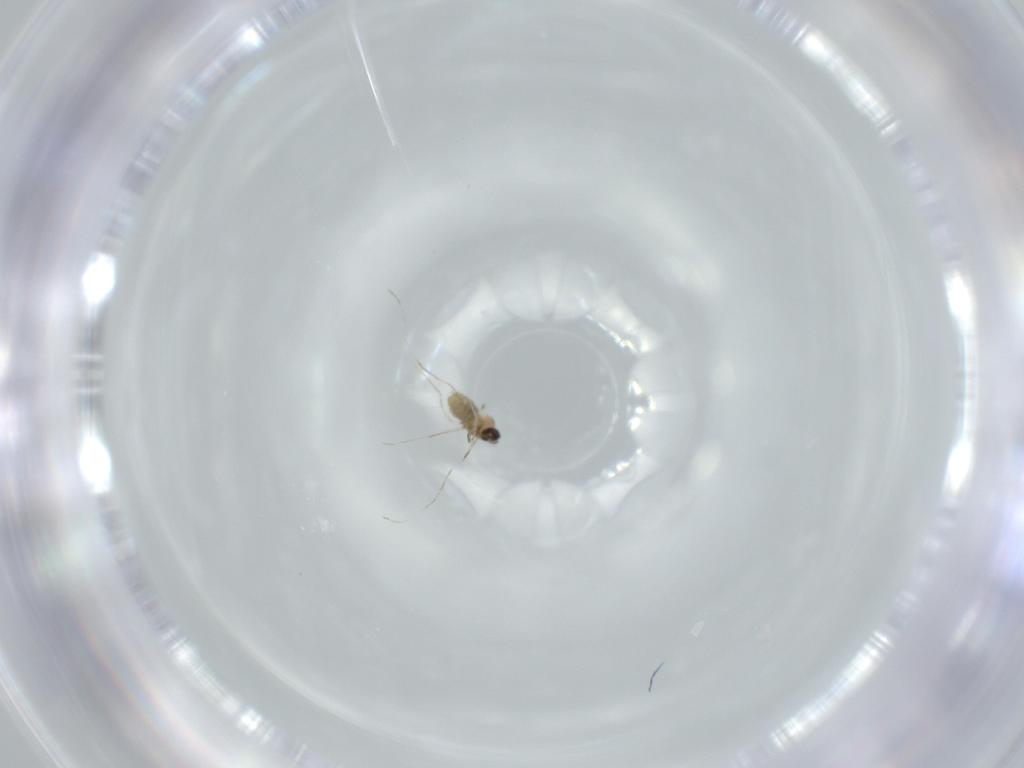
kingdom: Animalia
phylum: Arthropoda
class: Insecta
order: Diptera
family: Cecidomyiidae
